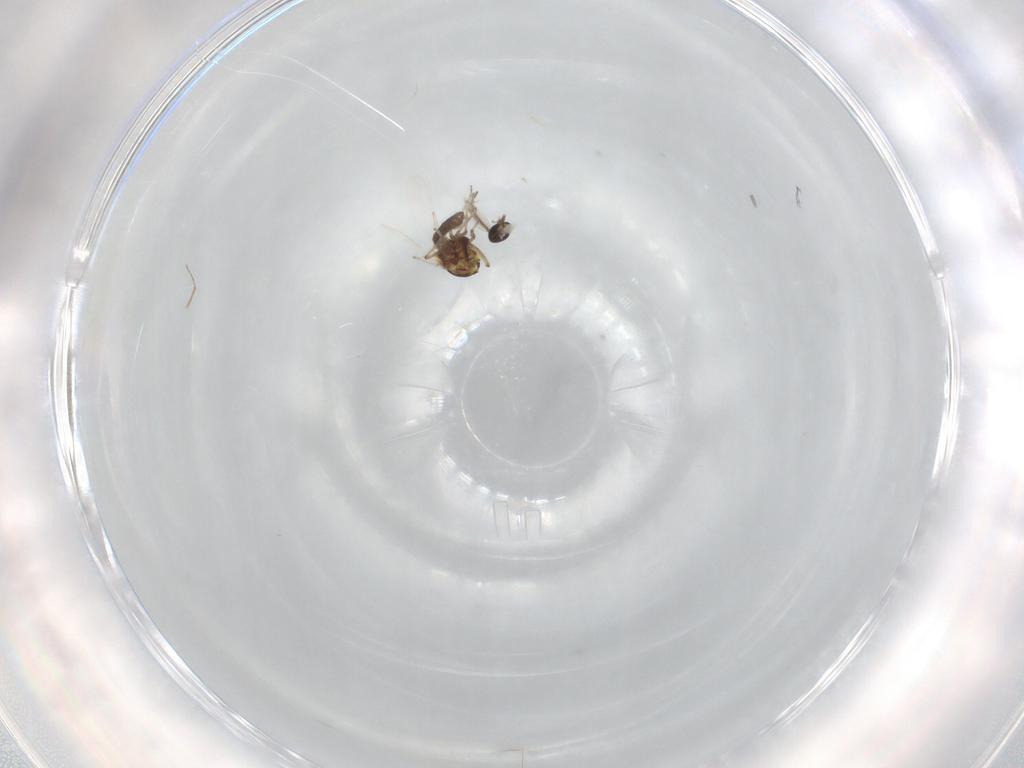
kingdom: Animalia
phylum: Arthropoda
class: Insecta
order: Diptera
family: Ceratopogonidae
